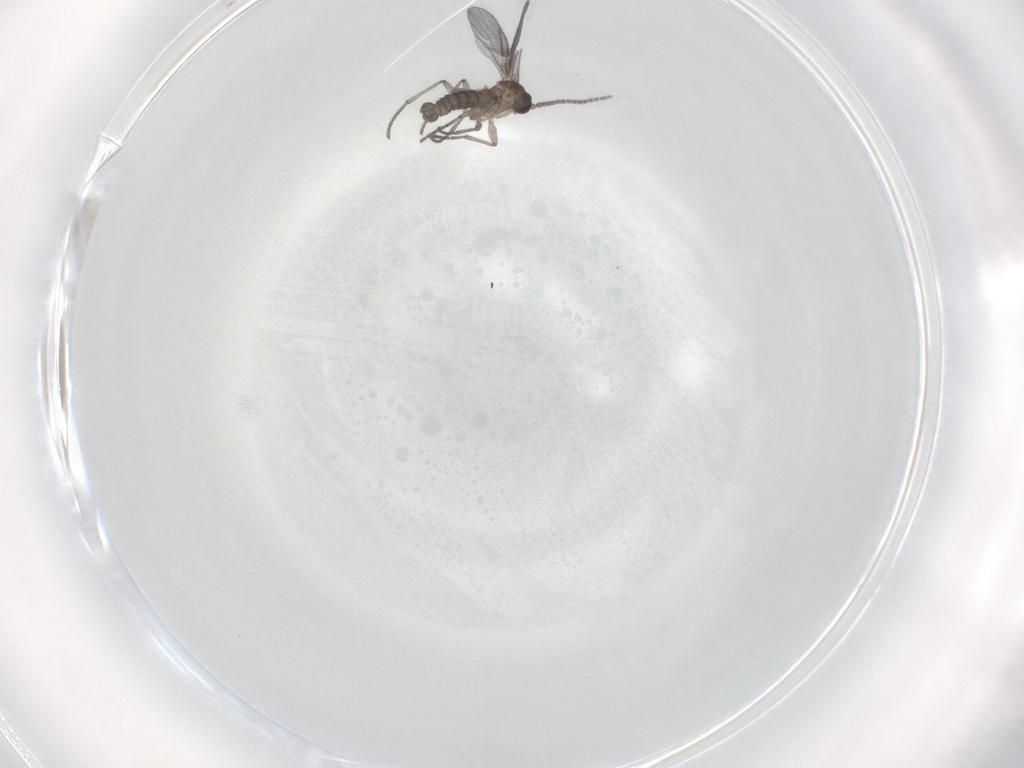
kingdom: Animalia
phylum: Arthropoda
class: Insecta
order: Diptera
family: Sciaridae
